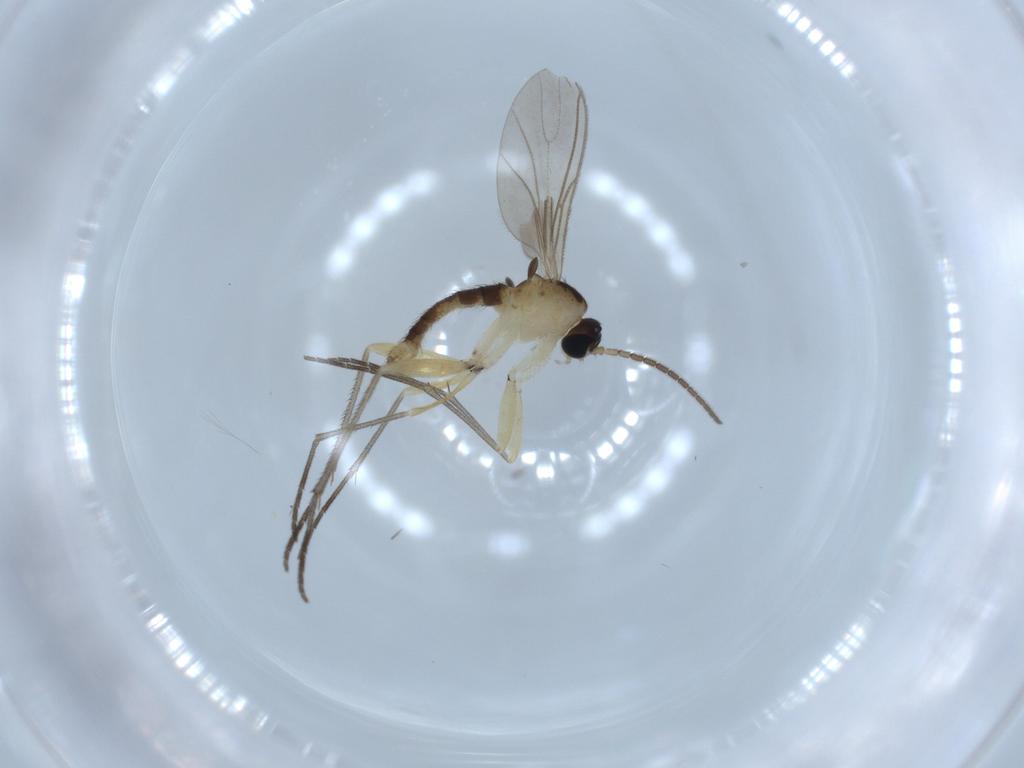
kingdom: Animalia
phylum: Arthropoda
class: Insecta
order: Diptera
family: Sciaridae
